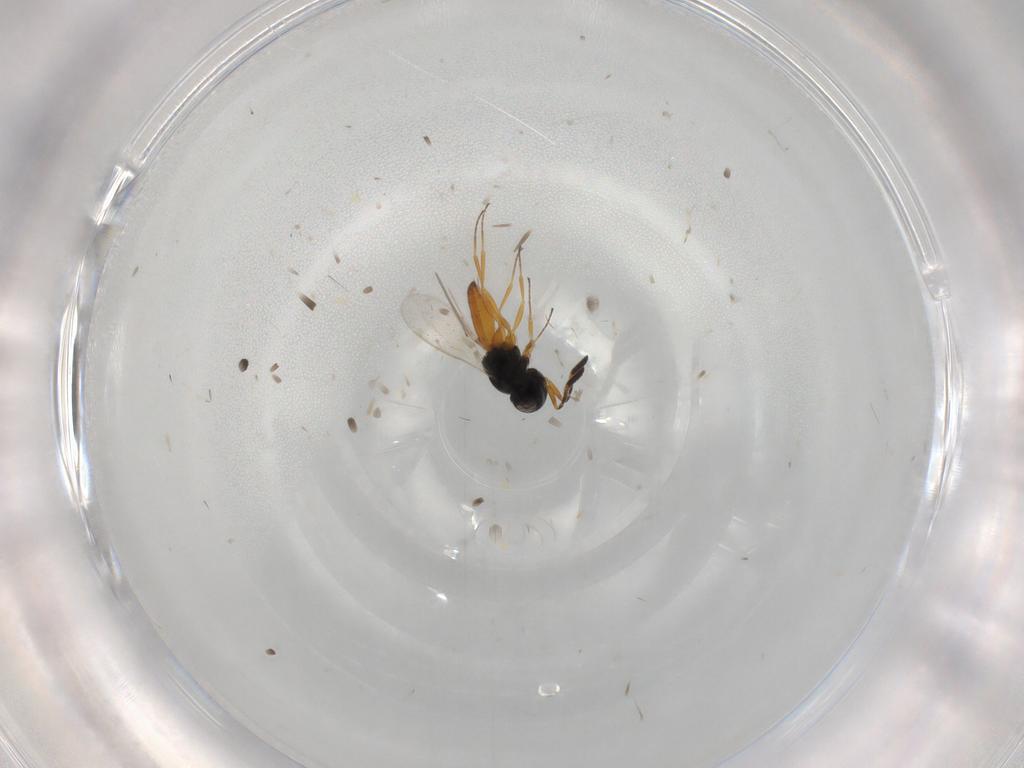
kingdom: Animalia
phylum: Arthropoda
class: Insecta
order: Hymenoptera
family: Scelionidae
